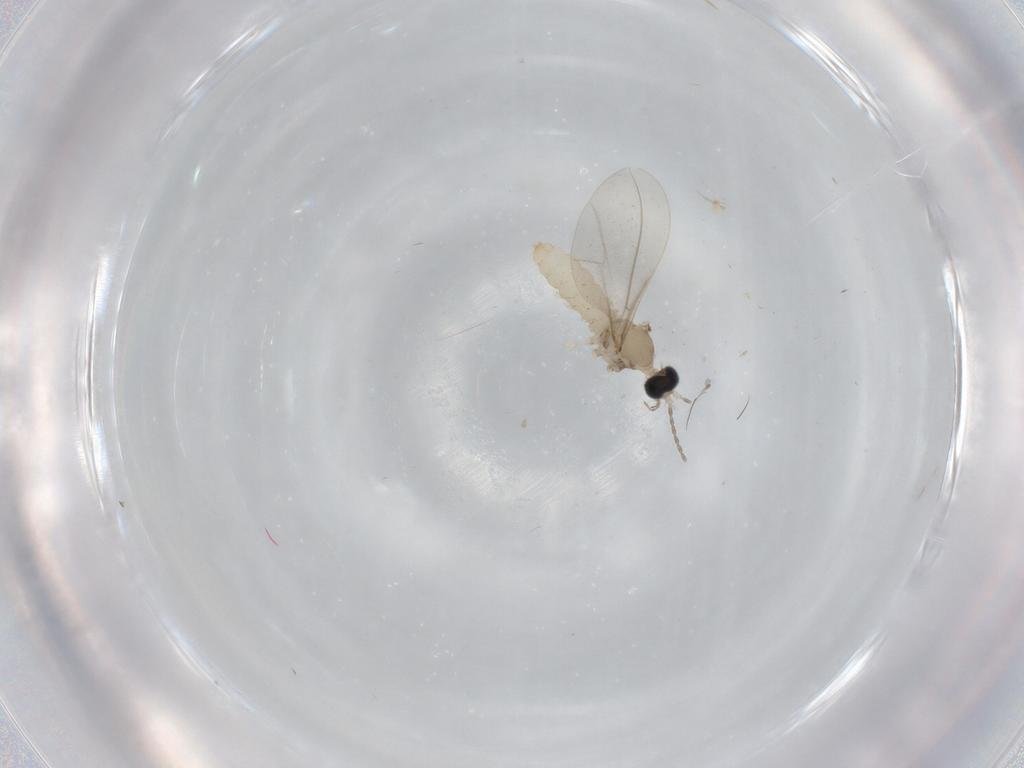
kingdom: Animalia
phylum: Arthropoda
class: Insecta
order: Diptera
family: Cecidomyiidae
